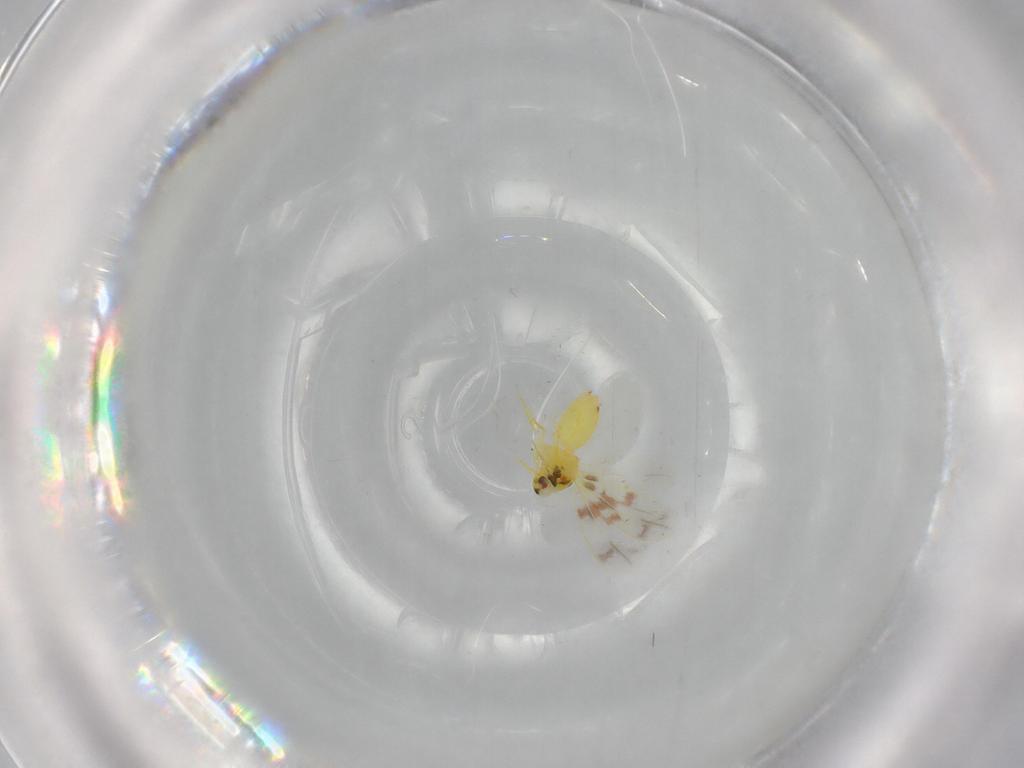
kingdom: Animalia
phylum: Arthropoda
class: Insecta
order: Hemiptera
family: Aleyrodidae
